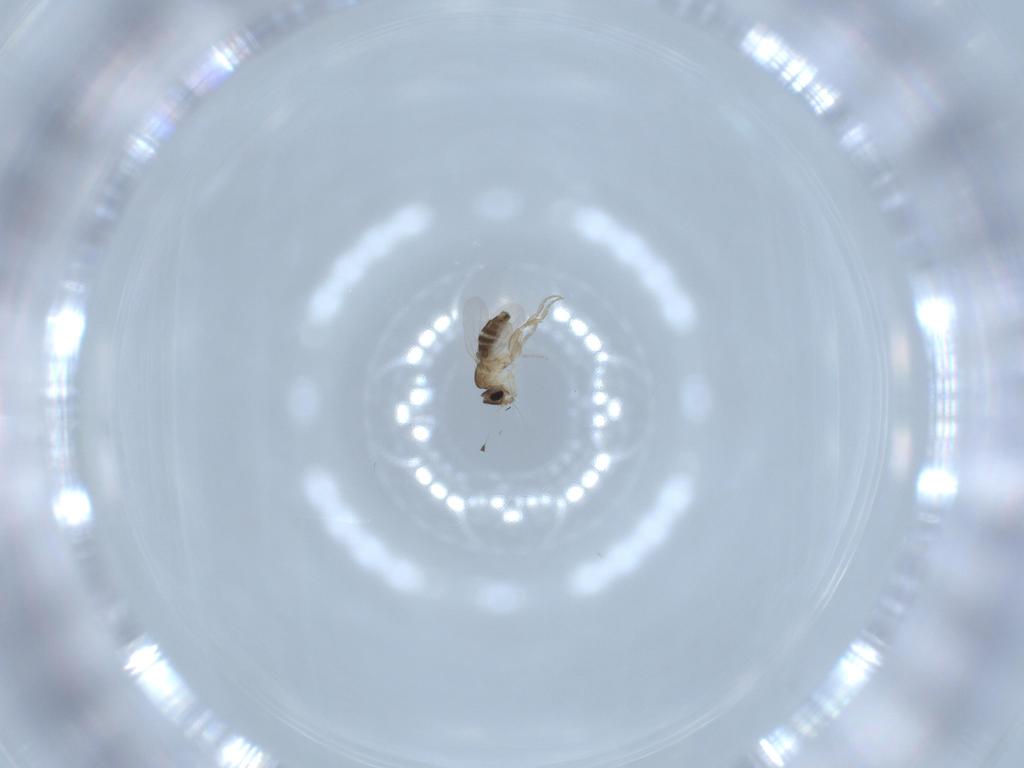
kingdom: Animalia
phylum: Arthropoda
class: Insecta
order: Diptera
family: Phoridae
